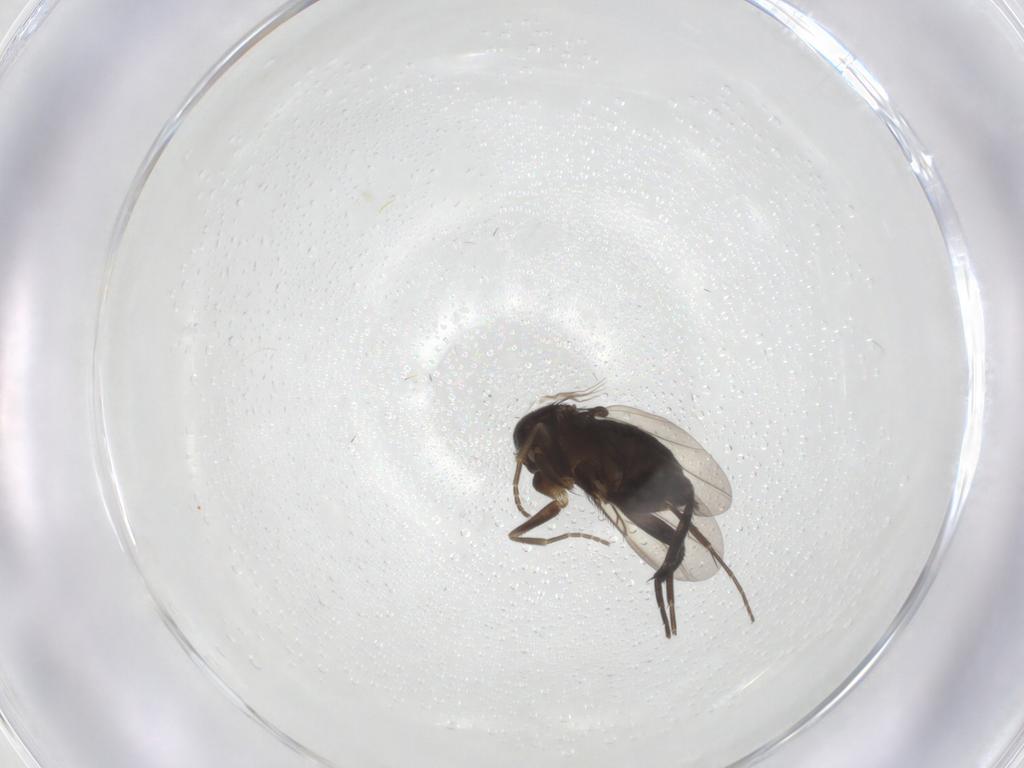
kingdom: Animalia
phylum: Arthropoda
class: Insecta
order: Diptera
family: Phoridae
